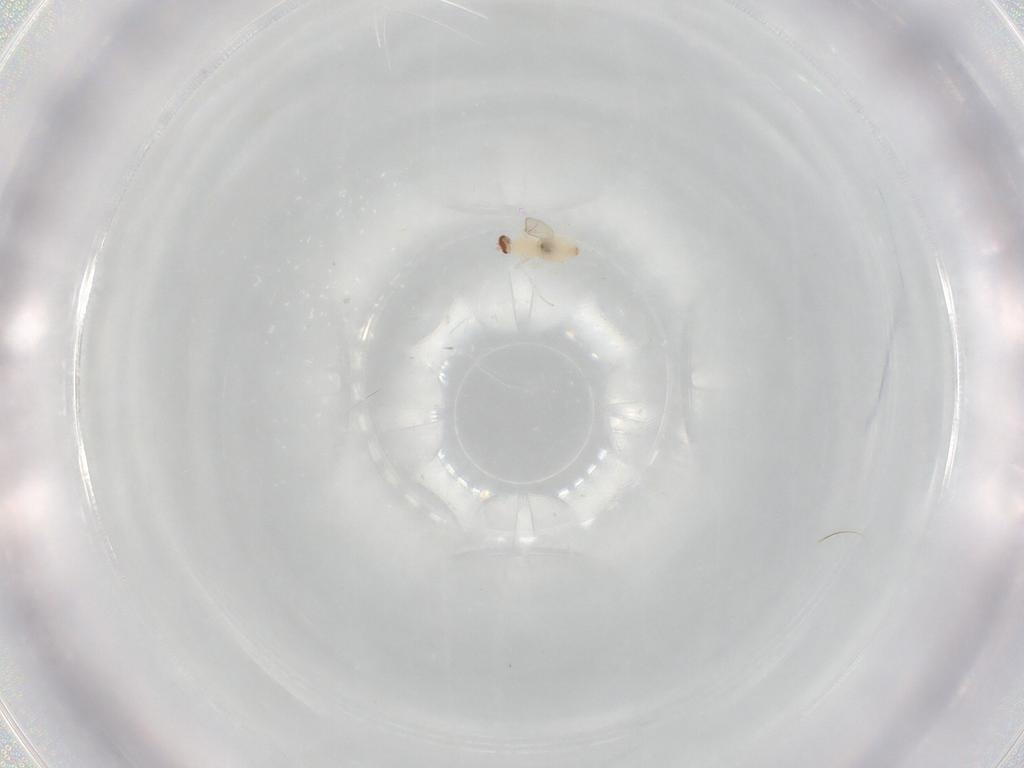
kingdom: Animalia
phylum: Arthropoda
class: Insecta
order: Diptera
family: Cecidomyiidae
